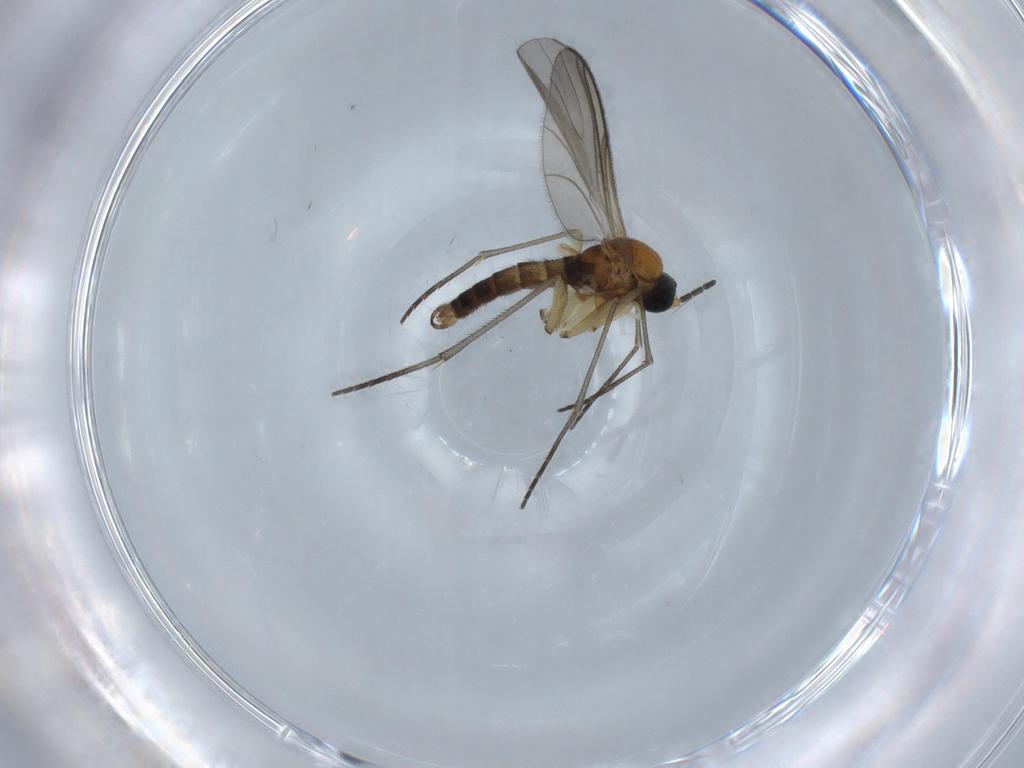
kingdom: Animalia
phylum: Arthropoda
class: Insecta
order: Diptera
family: Sciaridae
